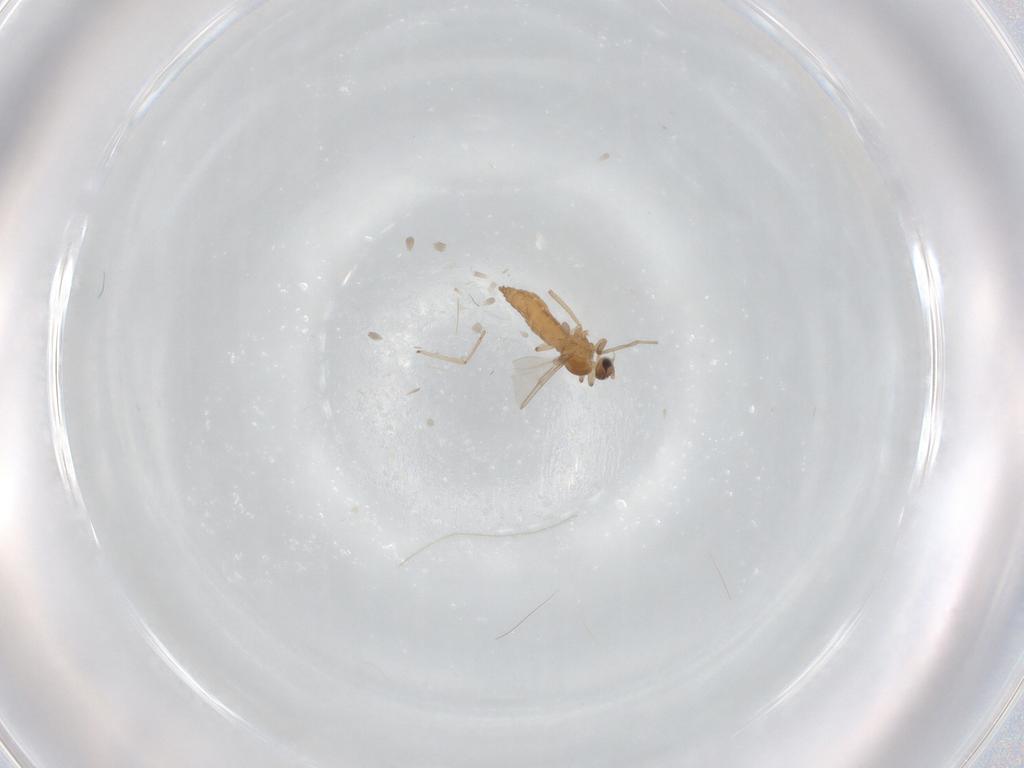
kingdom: Animalia
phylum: Arthropoda
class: Insecta
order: Diptera
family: Cecidomyiidae
